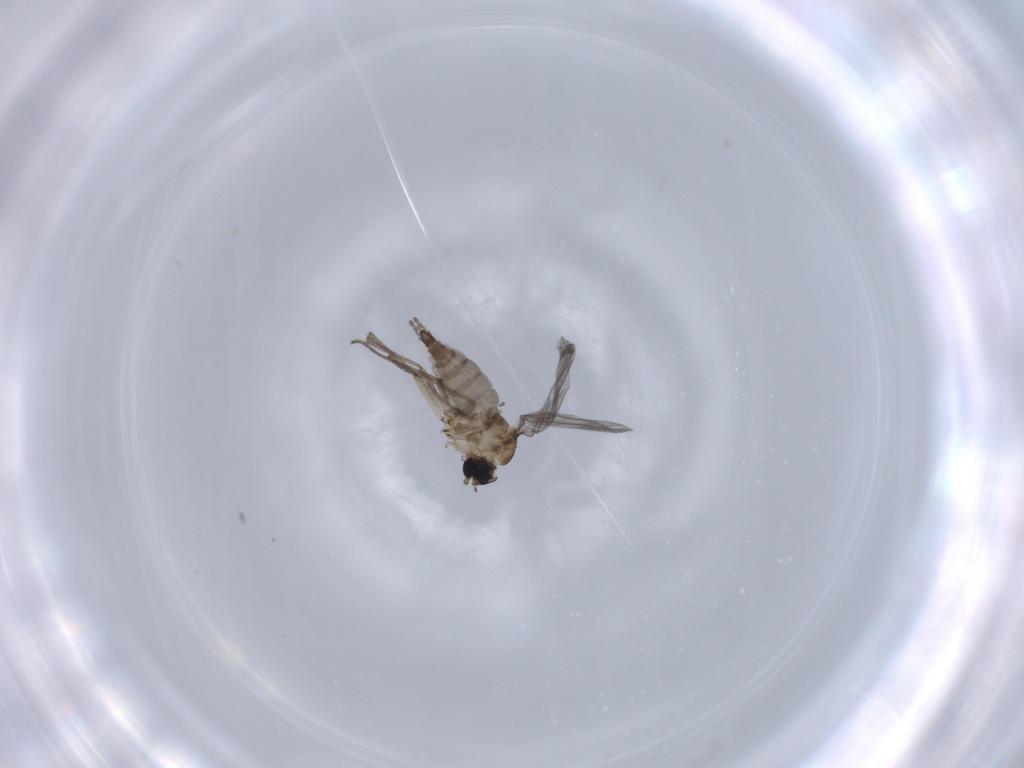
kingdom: Animalia
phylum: Arthropoda
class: Insecta
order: Diptera
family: Sciaridae
